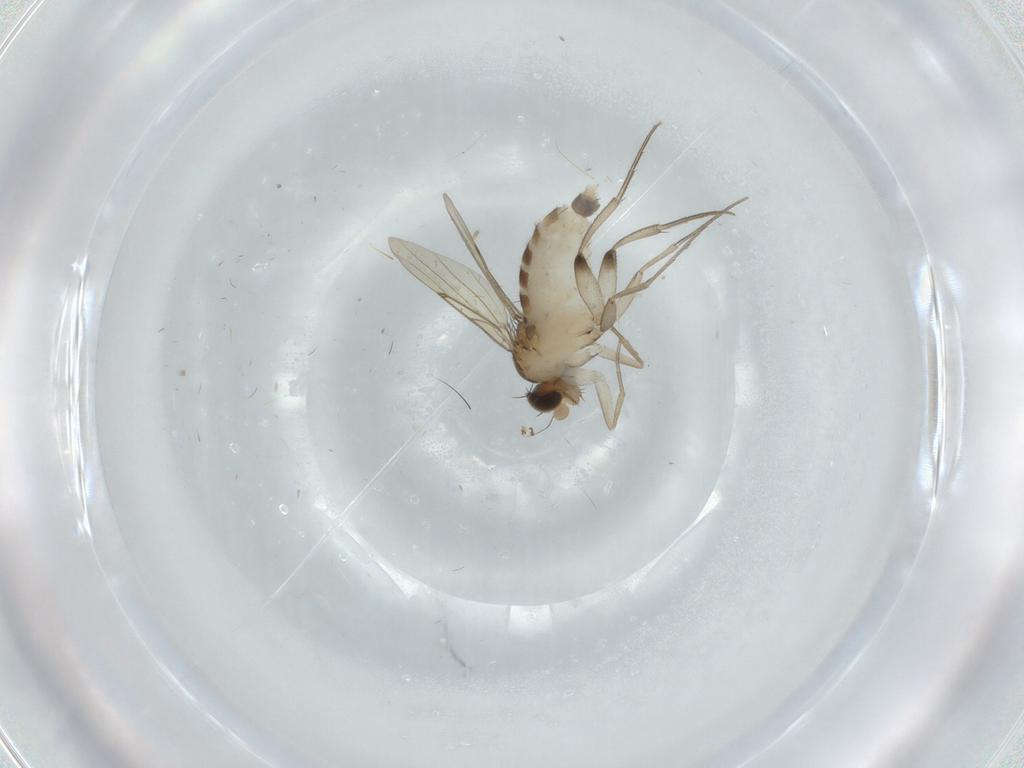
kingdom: Animalia
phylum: Arthropoda
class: Insecta
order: Diptera
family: Phoridae
